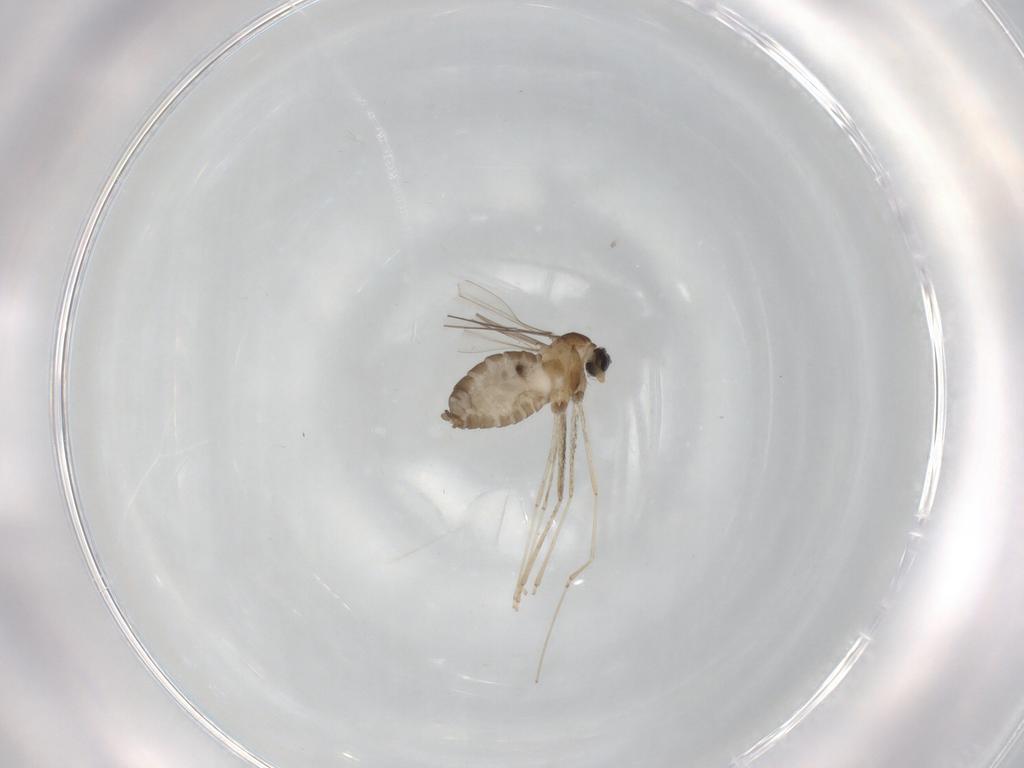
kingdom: Animalia
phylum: Arthropoda
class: Insecta
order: Diptera
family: Cecidomyiidae
